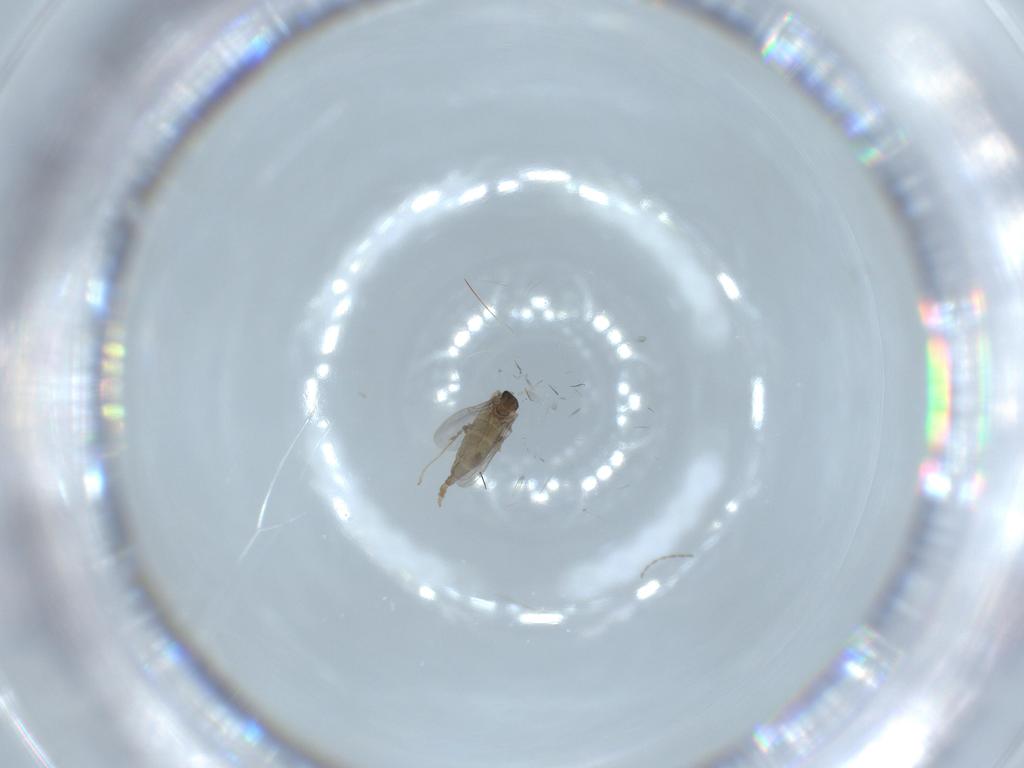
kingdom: Animalia
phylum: Arthropoda
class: Insecta
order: Diptera
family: Cecidomyiidae
